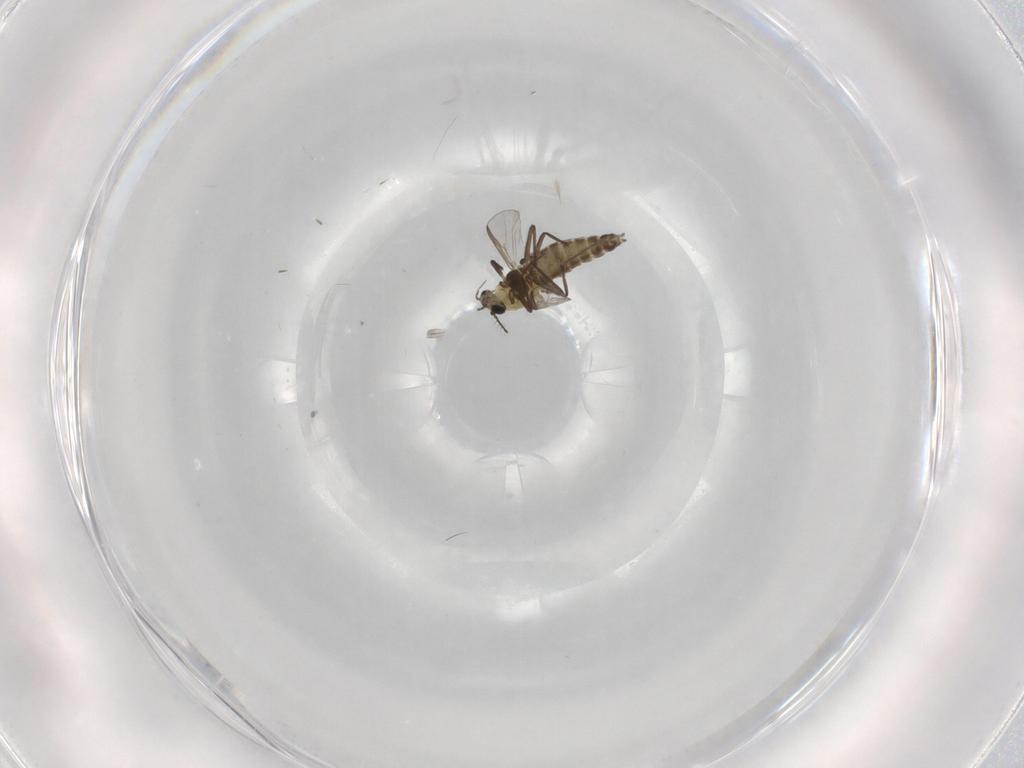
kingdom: Animalia
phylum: Arthropoda
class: Insecta
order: Diptera
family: Chironomidae
